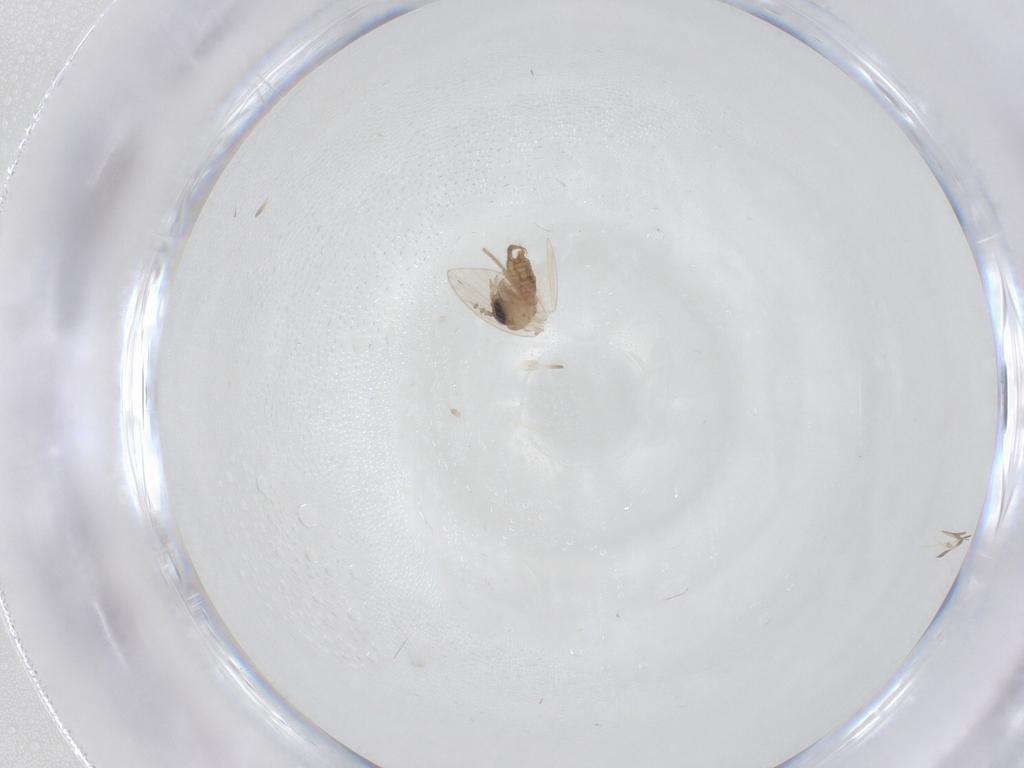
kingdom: Animalia
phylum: Arthropoda
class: Insecta
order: Diptera
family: Psychodidae
